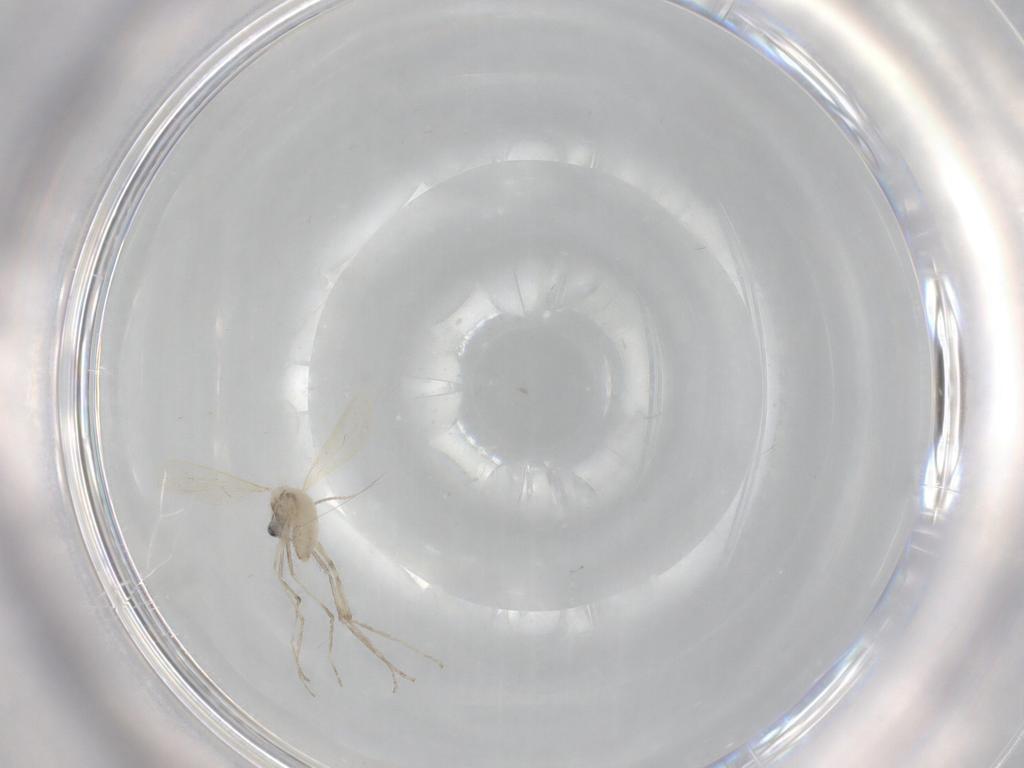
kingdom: Animalia
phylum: Arthropoda
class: Insecta
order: Diptera
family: Cecidomyiidae
